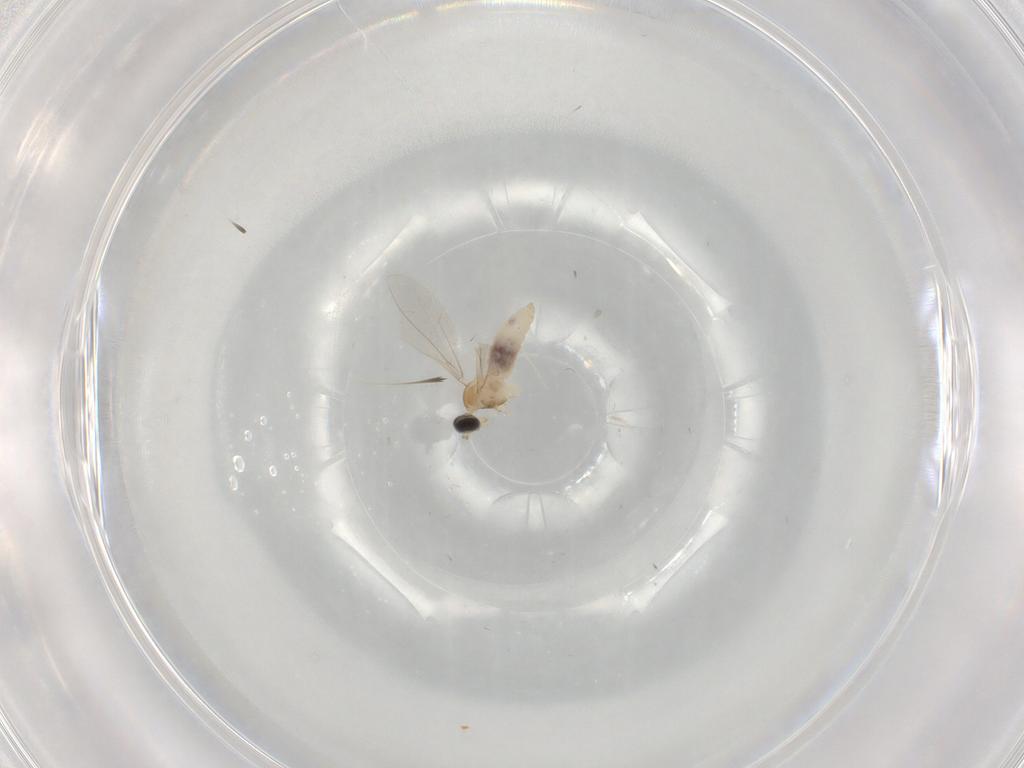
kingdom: Animalia
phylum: Arthropoda
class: Insecta
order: Diptera
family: Cecidomyiidae
